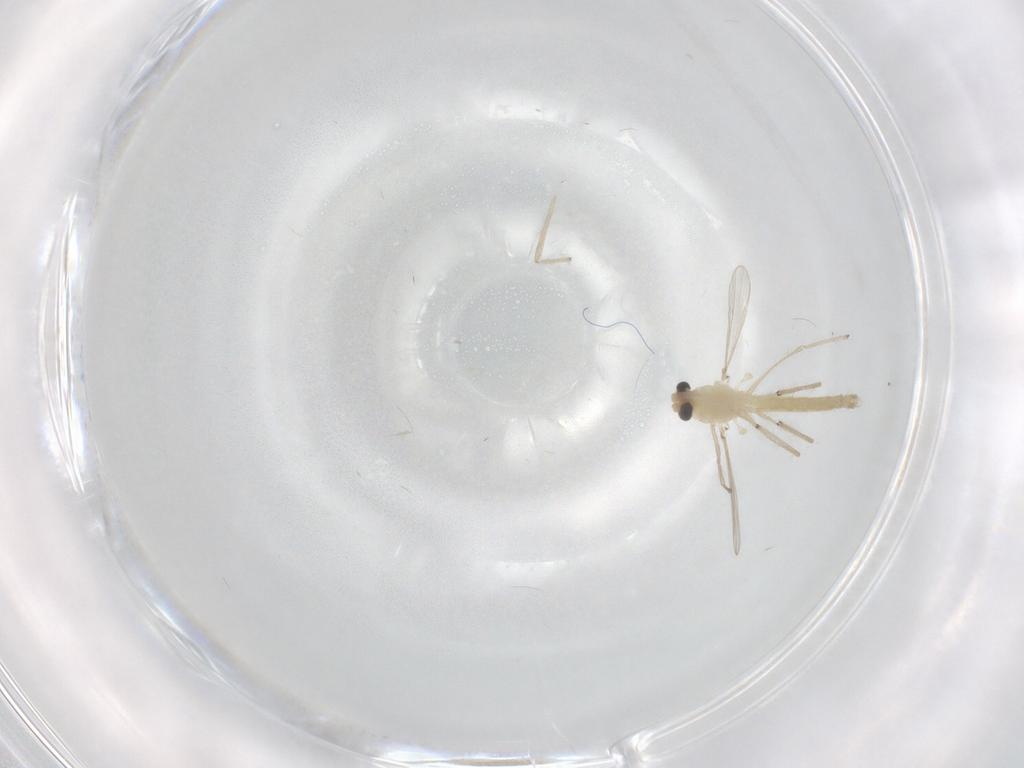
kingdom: Animalia
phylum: Arthropoda
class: Insecta
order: Diptera
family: Chironomidae
